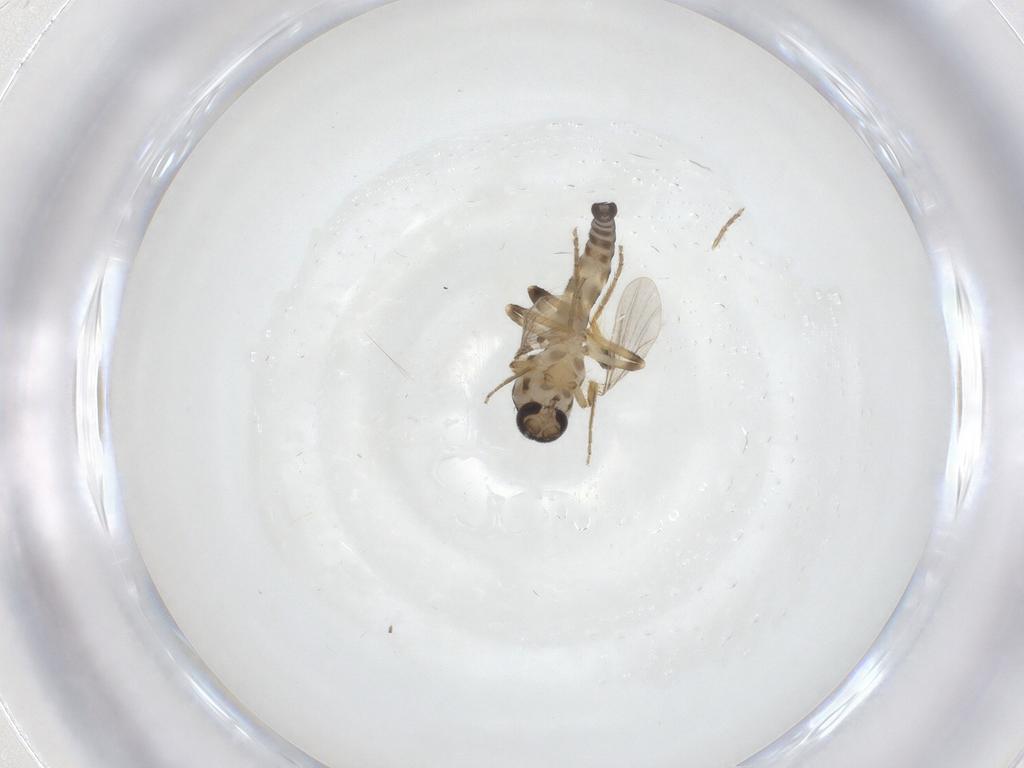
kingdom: Animalia
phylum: Arthropoda
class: Insecta
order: Diptera
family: Ceratopogonidae
